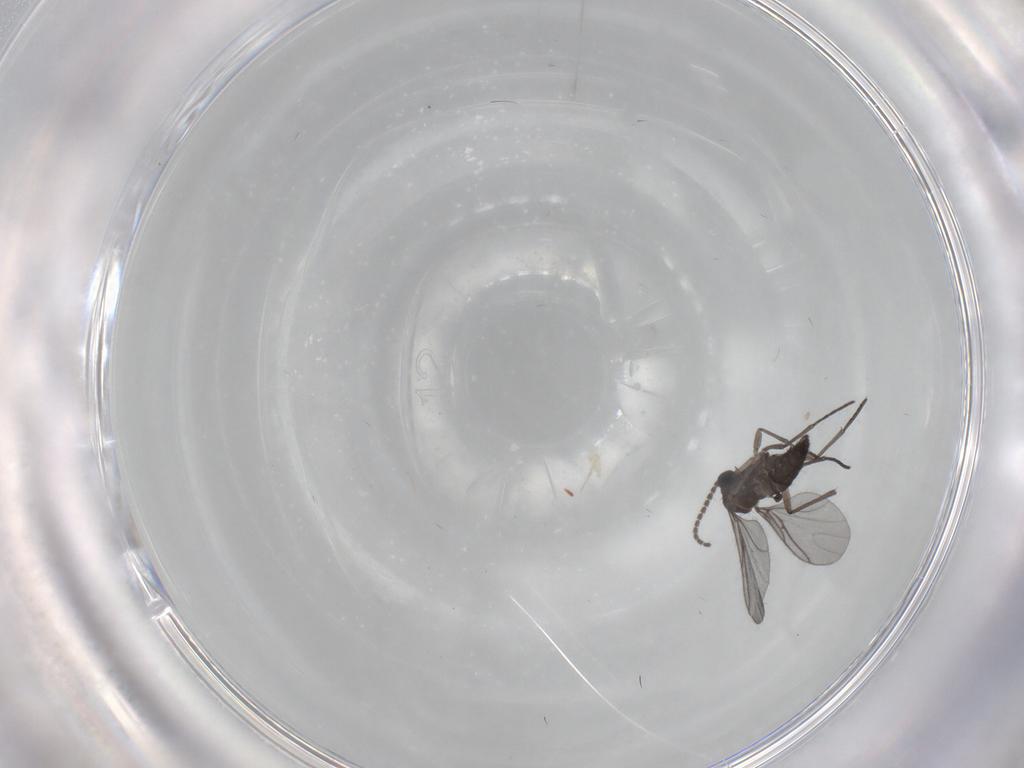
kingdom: Animalia
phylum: Arthropoda
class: Insecta
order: Diptera
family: Sciaridae
